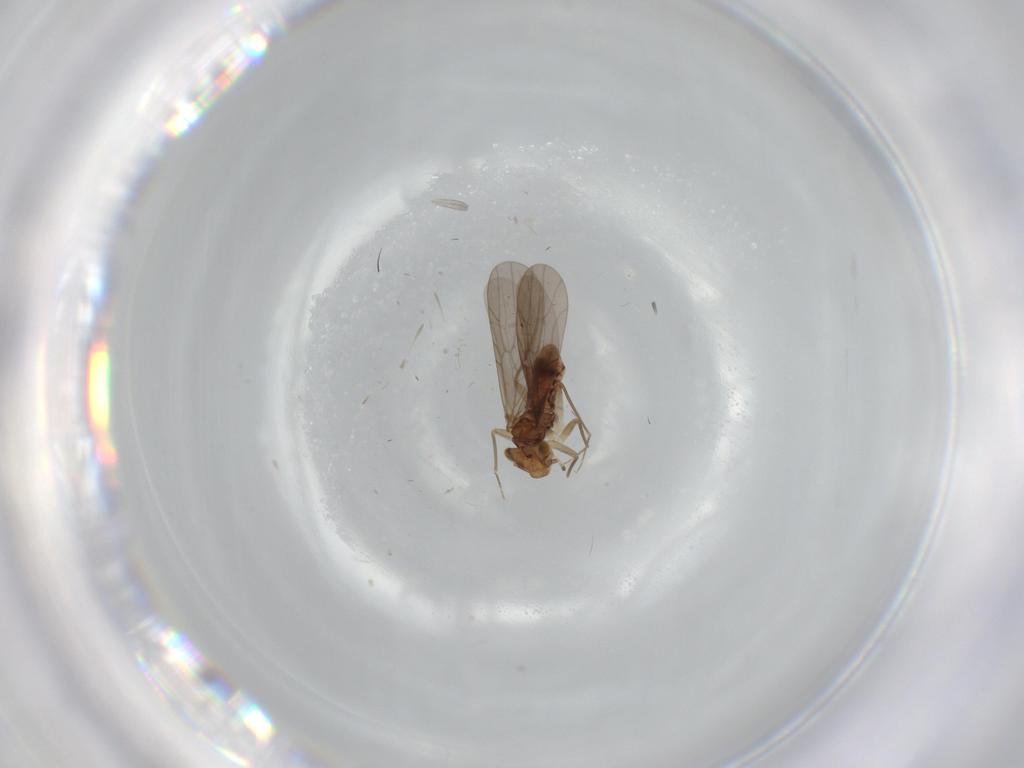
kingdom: Animalia
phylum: Arthropoda
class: Insecta
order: Psocodea
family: Lepidopsocidae
